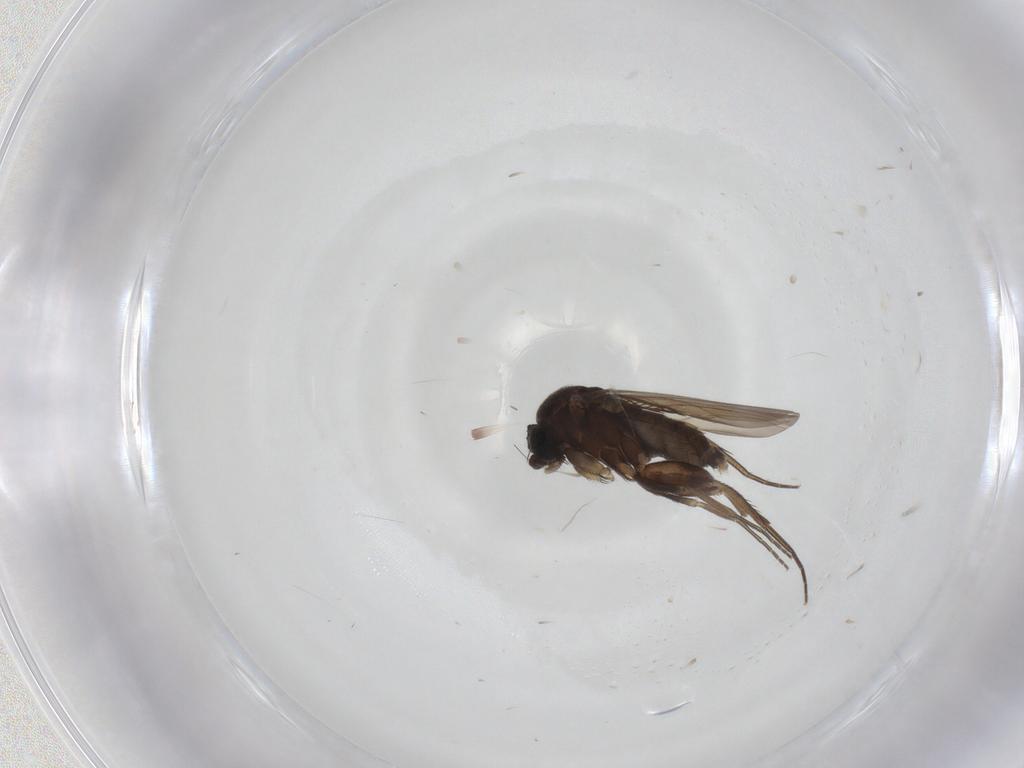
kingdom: Animalia
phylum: Arthropoda
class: Insecta
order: Diptera
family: Phoridae
